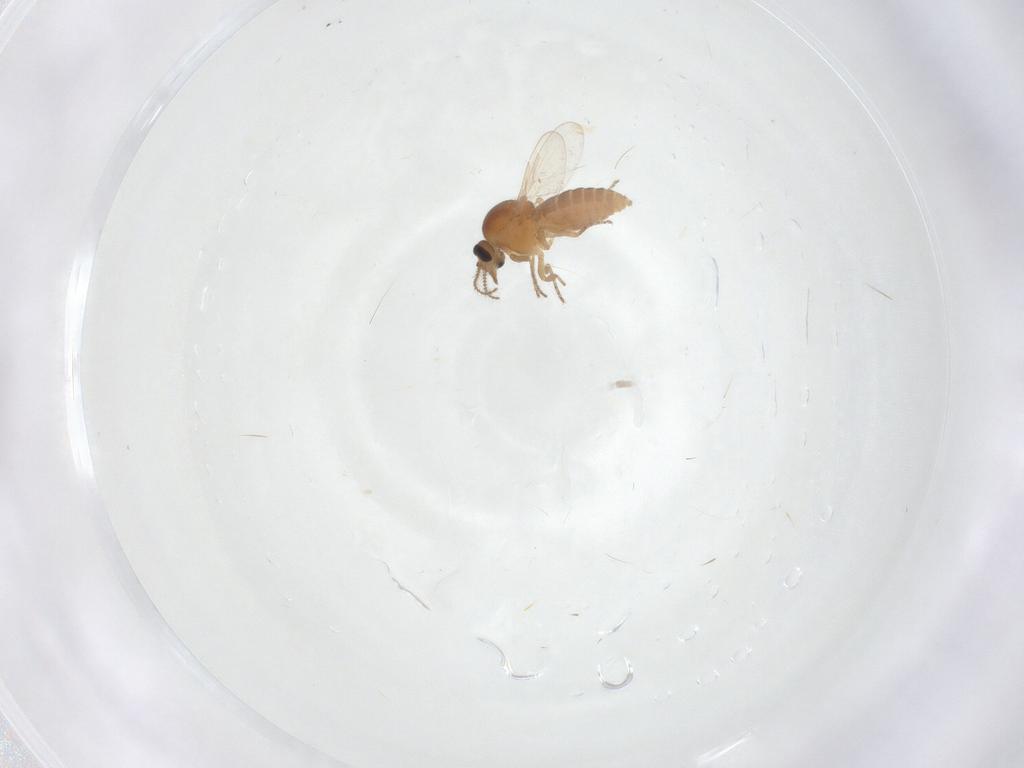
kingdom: Animalia
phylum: Arthropoda
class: Insecta
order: Diptera
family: Ceratopogonidae
